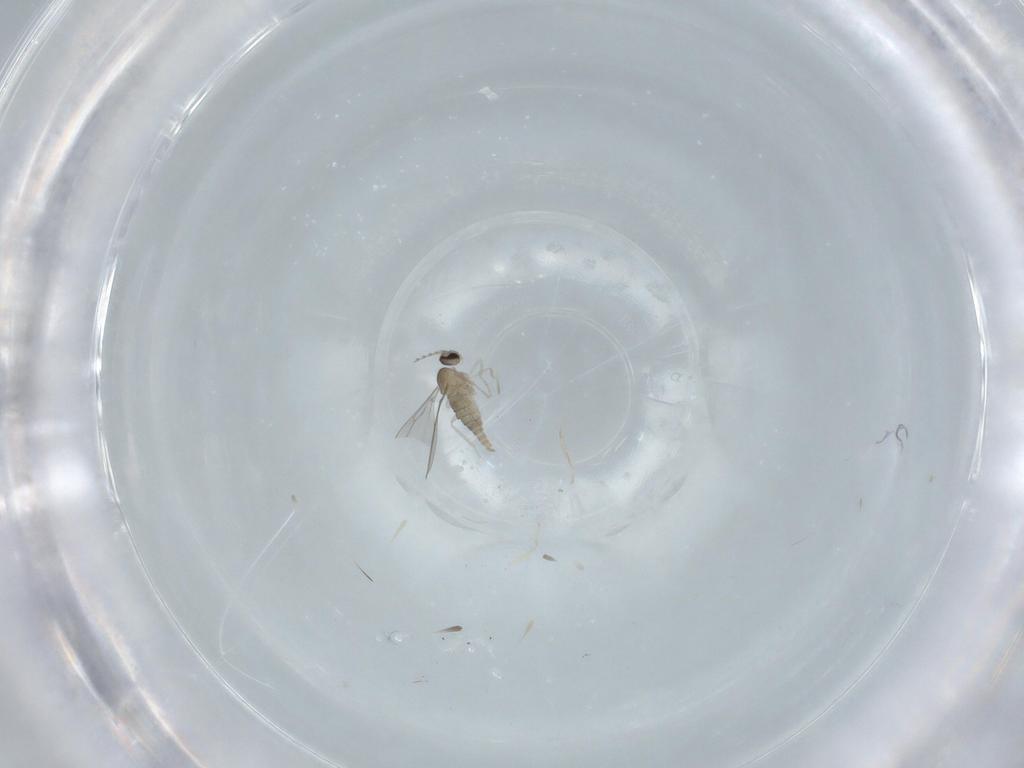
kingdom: Animalia
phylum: Arthropoda
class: Insecta
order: Diptera
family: Cecidomyiidae
